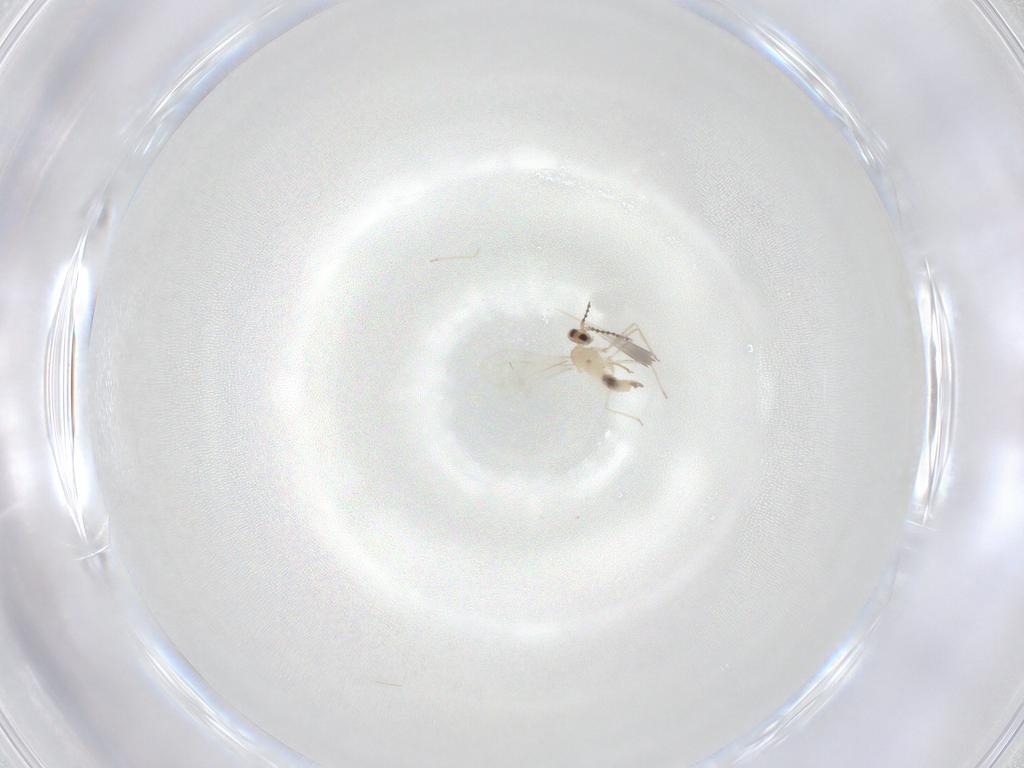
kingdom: Animalia
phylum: Arthropoda
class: Insecta
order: Diptera
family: Cecidomyiidae
